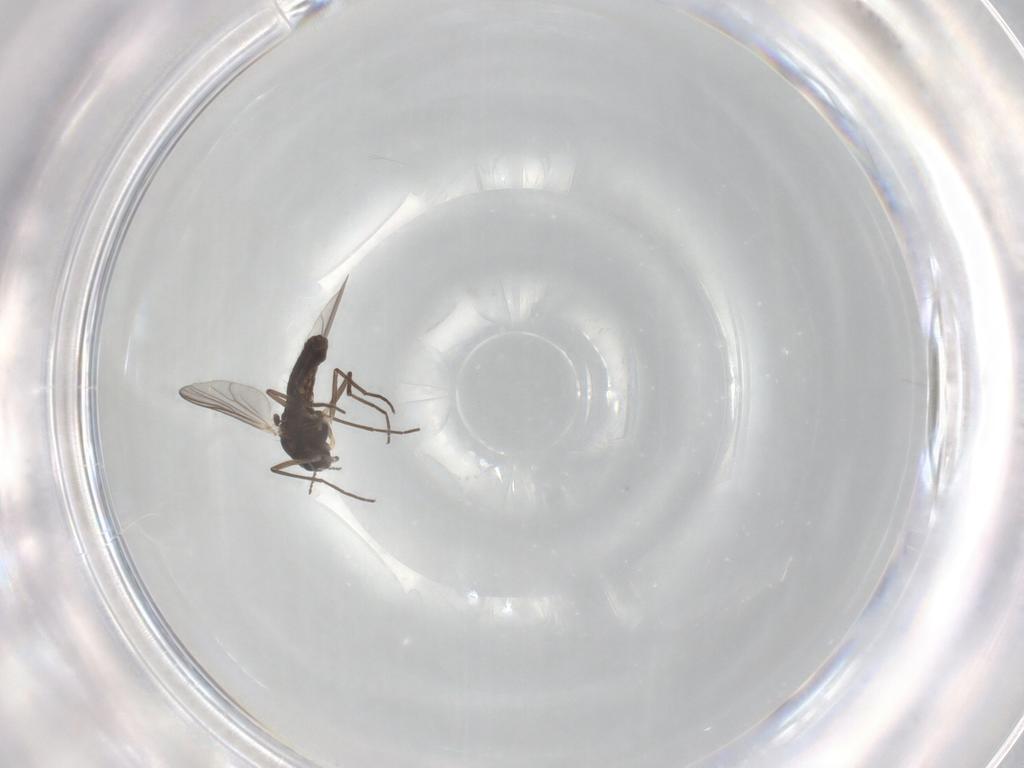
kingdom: Animalia
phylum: Arthropoda
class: Insecta
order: Diptera
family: Chironomidae
